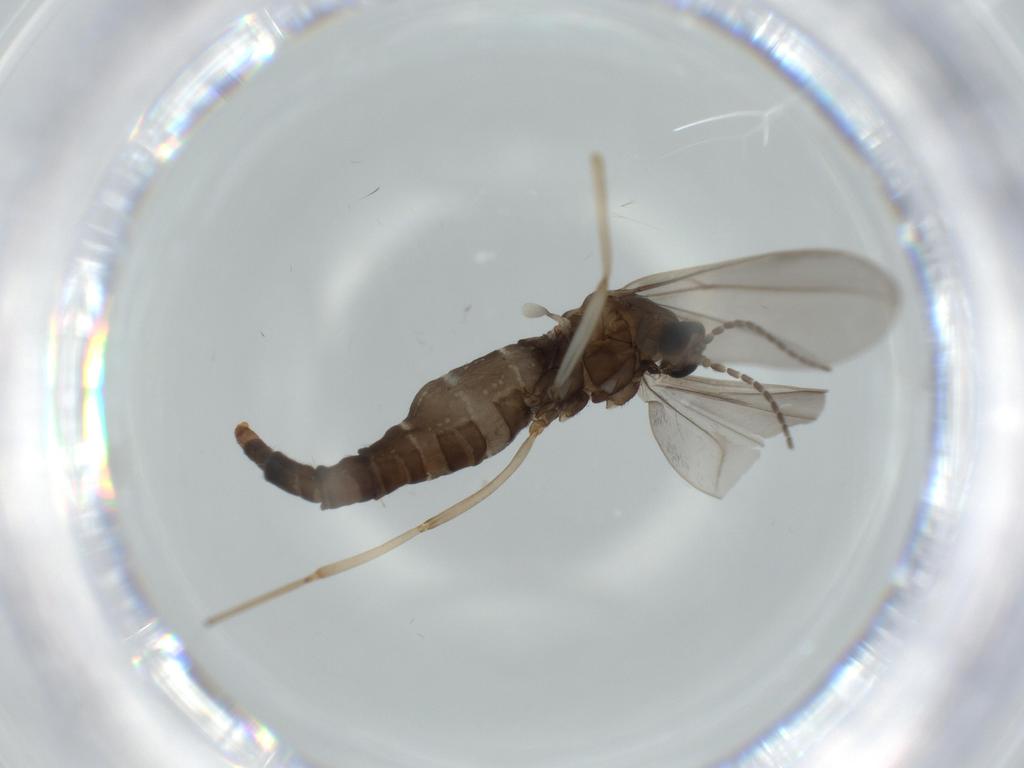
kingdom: Animalia
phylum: Arthropoda
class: Insecta
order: Diptera
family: Cecidomyiidae
